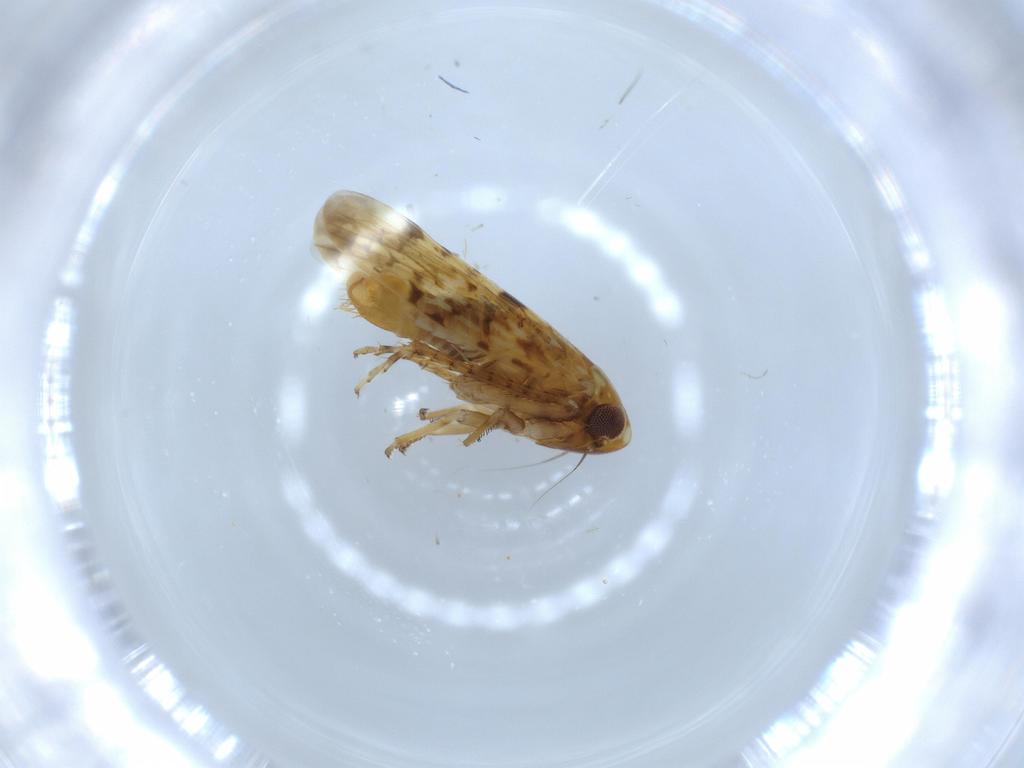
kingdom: Animalia
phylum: Arthropoda
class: Insecta
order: Hemiptera
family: Cicadellidae
